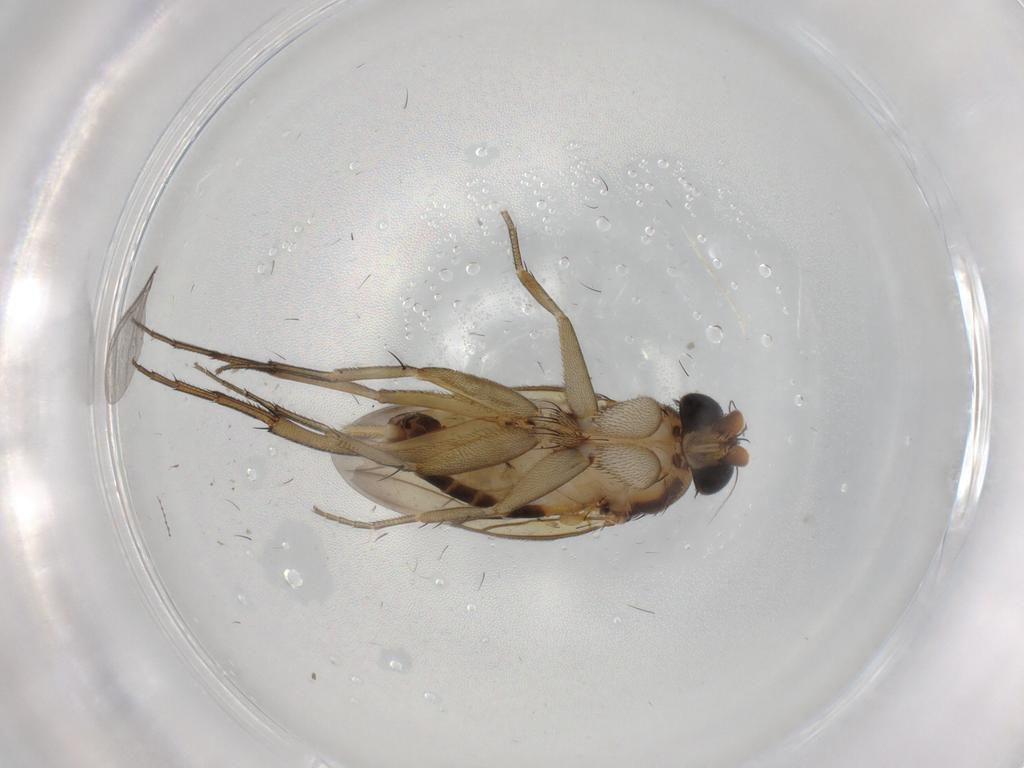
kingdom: Animalia
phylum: Arthropoda
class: Insecta
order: Diptera
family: Phoridae
